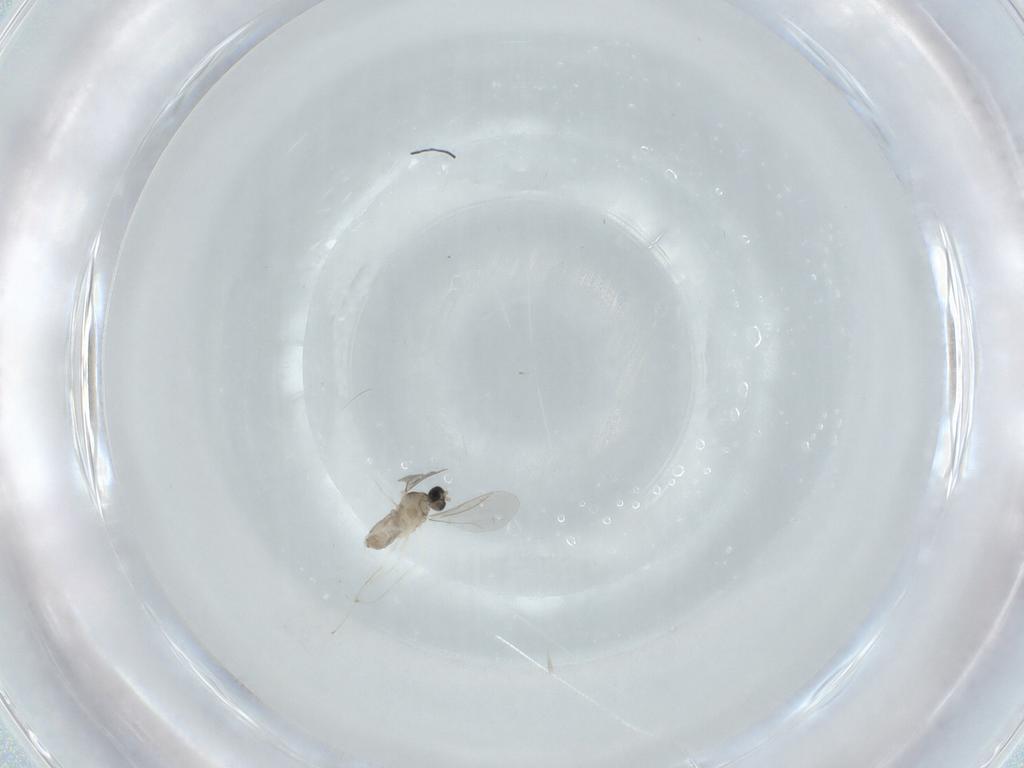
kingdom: Animalia
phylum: Arthropoda
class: Insecta
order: Diptera
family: Cecidomyiidae
